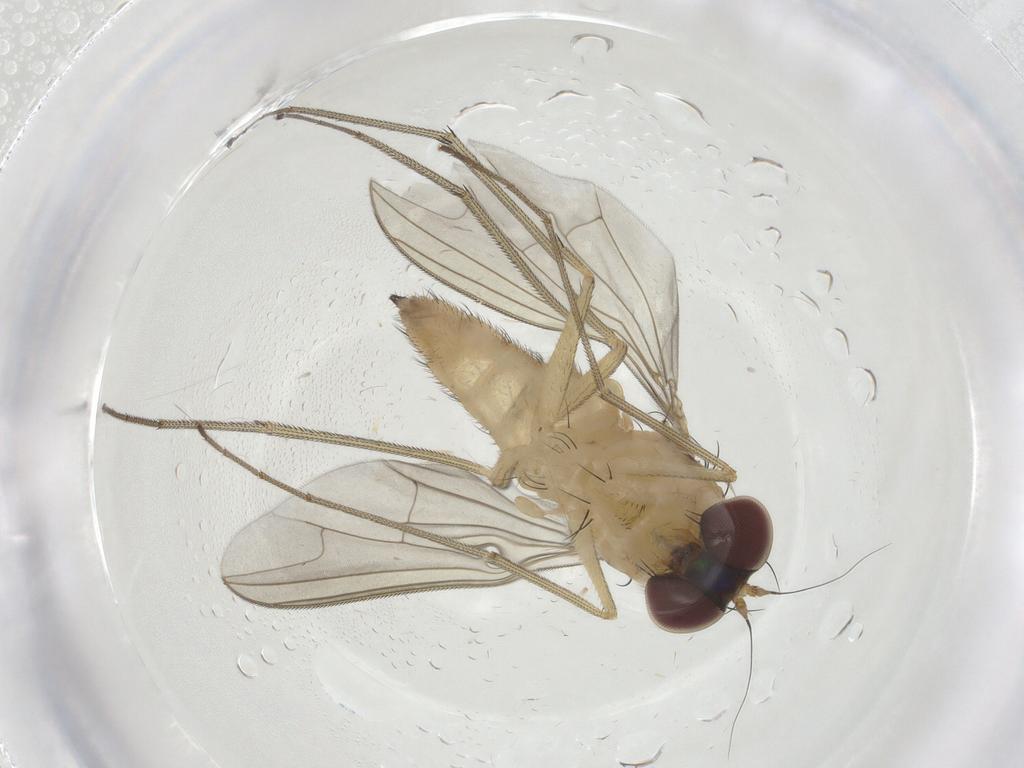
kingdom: Animalia
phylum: Arthropoda
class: Insecta
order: Diptera
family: Dolichopodidae
